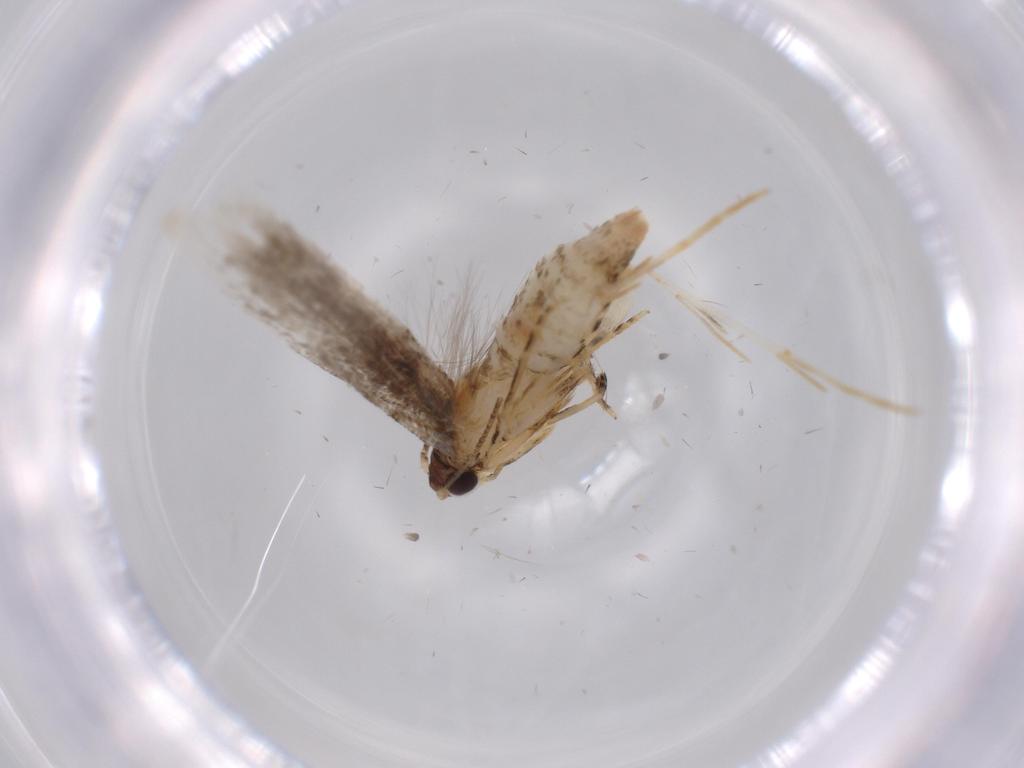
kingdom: Animalia
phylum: Arthropoda
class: Insecta
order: Lepidoptera
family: Tineidae
